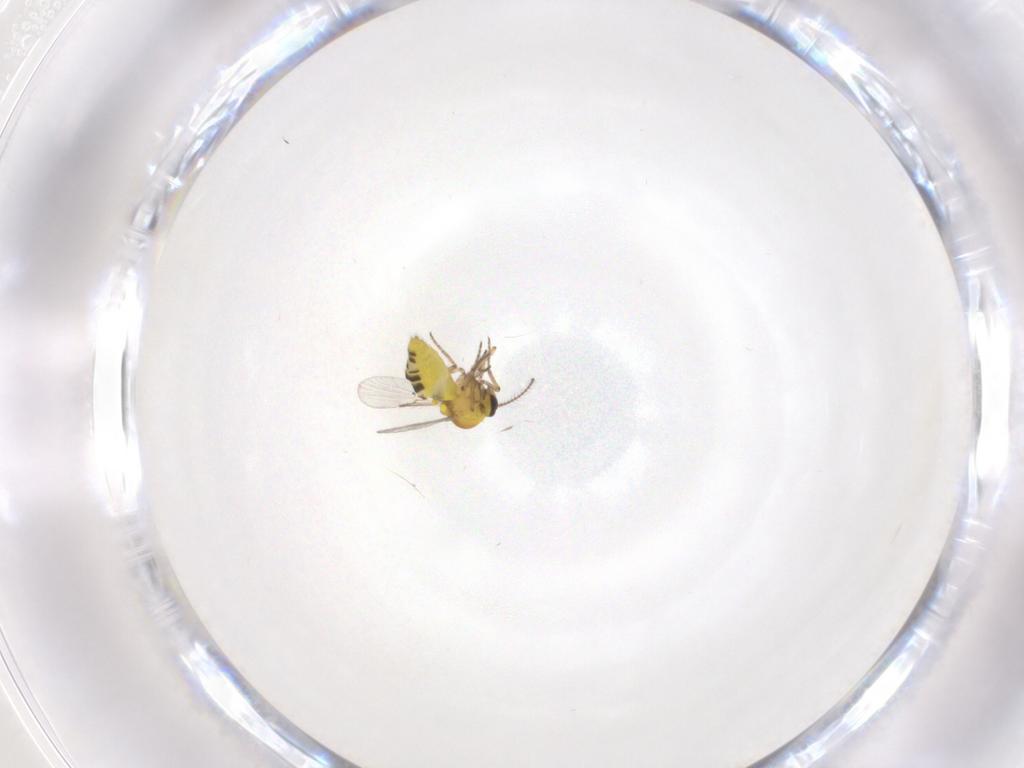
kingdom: Animalia
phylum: Arthropoda
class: Insecta
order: Diptera
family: Ceratopogonidae
